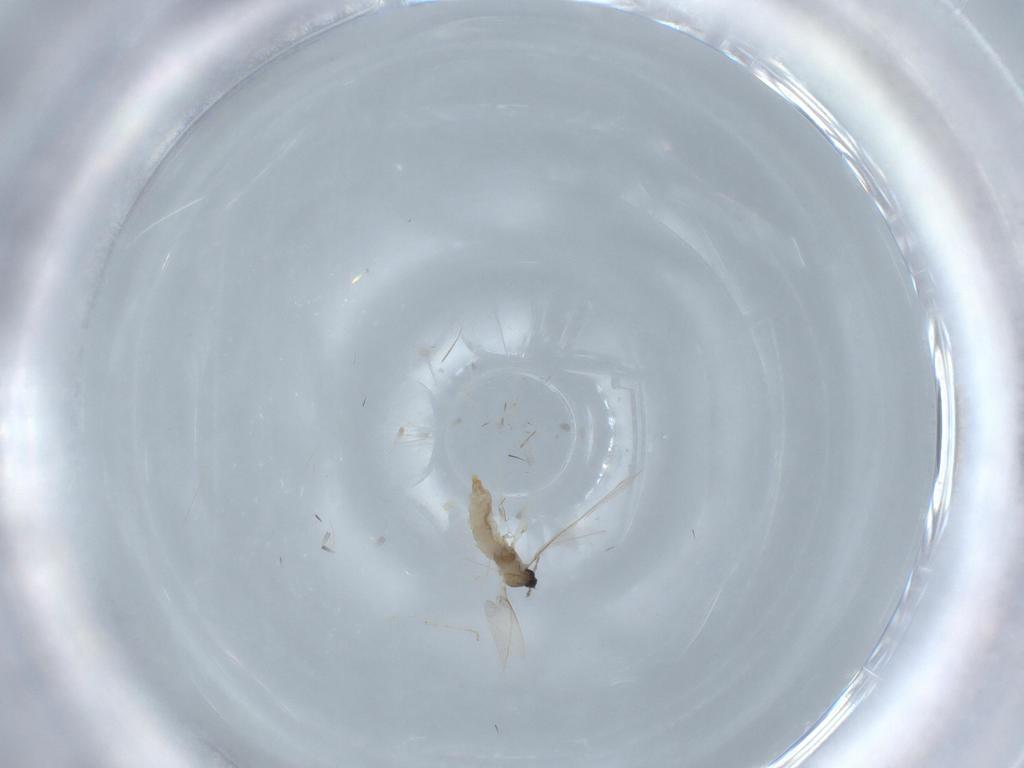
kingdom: Animalia
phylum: Arthropoda
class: Insecta
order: Diptera
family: Cecidomyiidae
